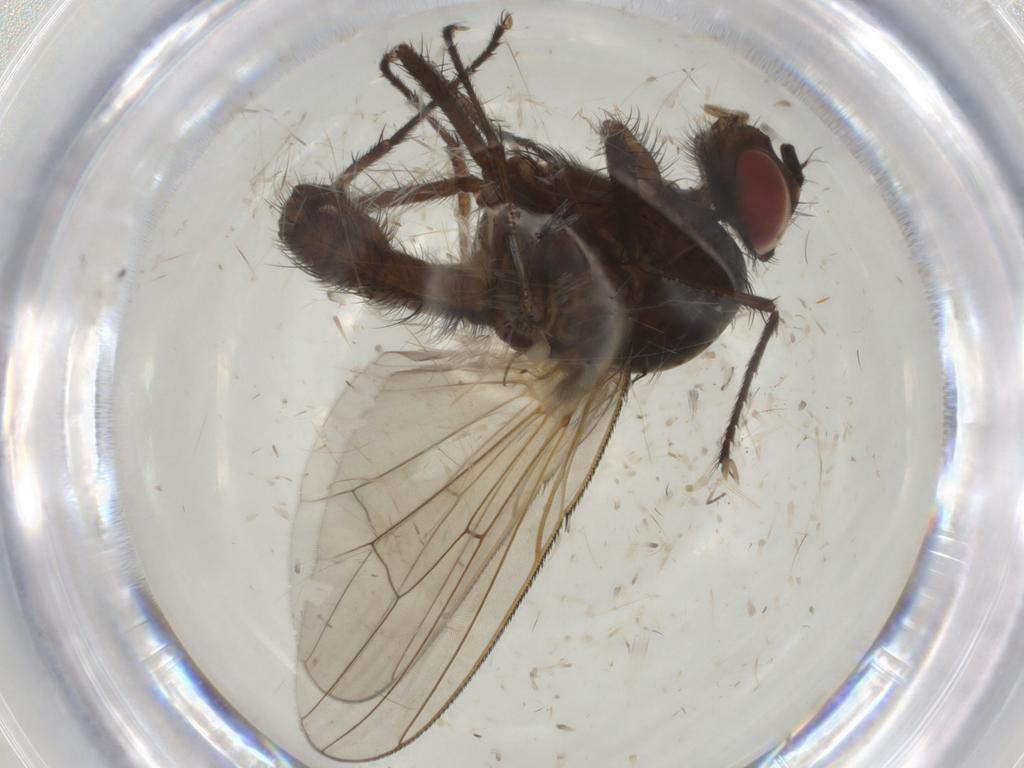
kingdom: Animalia
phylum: Arthropoda
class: Insecta
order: Diptera
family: Anthomyiidae
